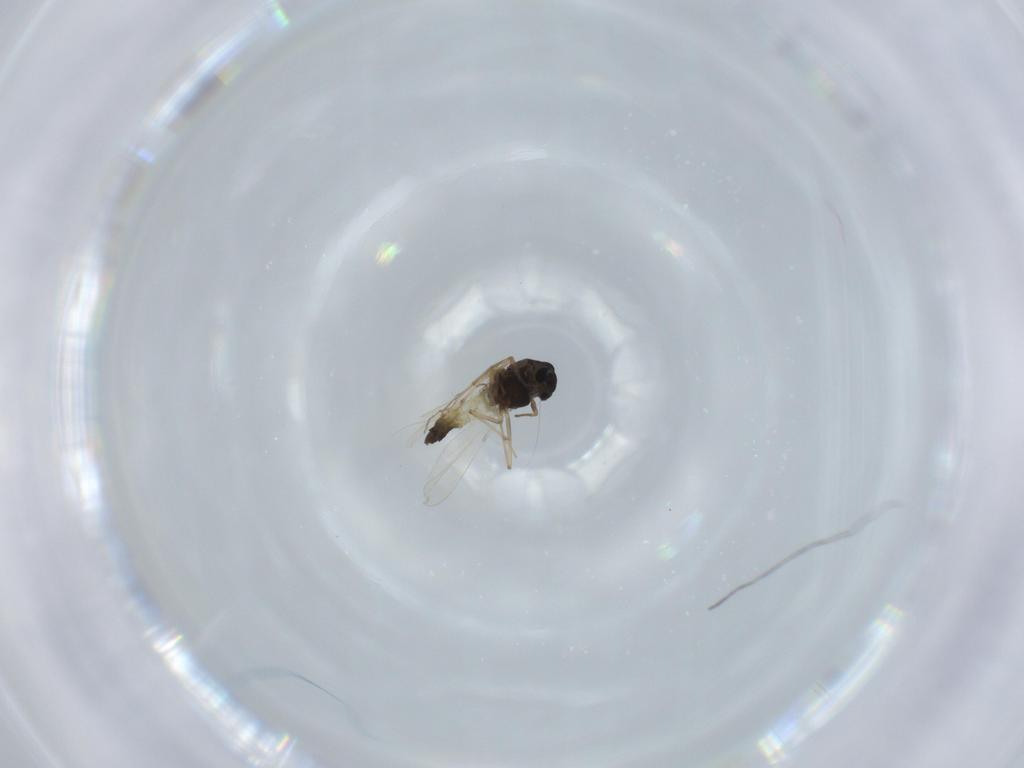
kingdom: Animalia
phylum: Arthropoda
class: Insecta
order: Diptera
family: Chironomidae
